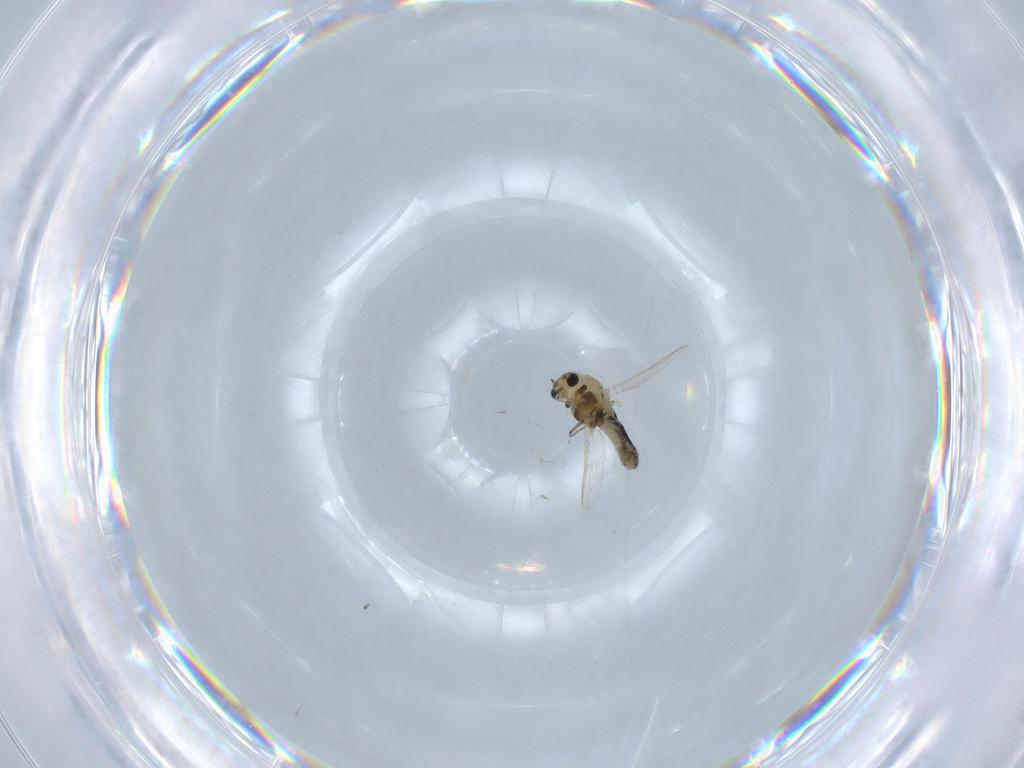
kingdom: Animalia
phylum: Arthropoda
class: Insecta
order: Diptera
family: Chironomidae
